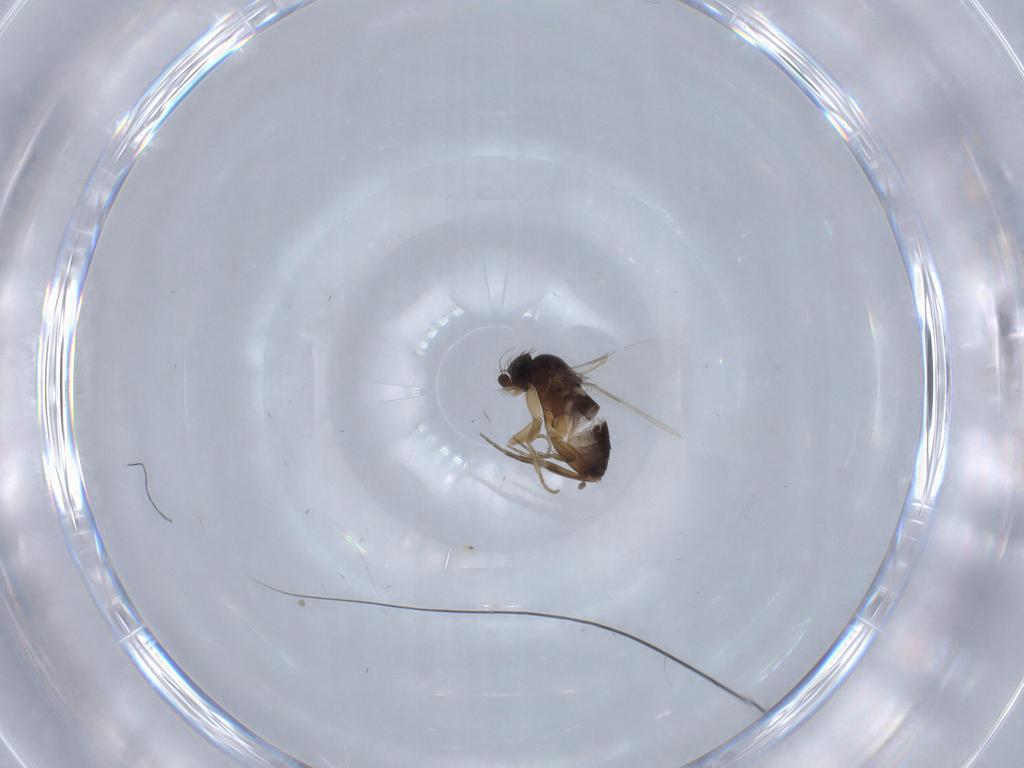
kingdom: Animalia
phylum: Arthropoda
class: Insecta
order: Diptera
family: Phoridae
